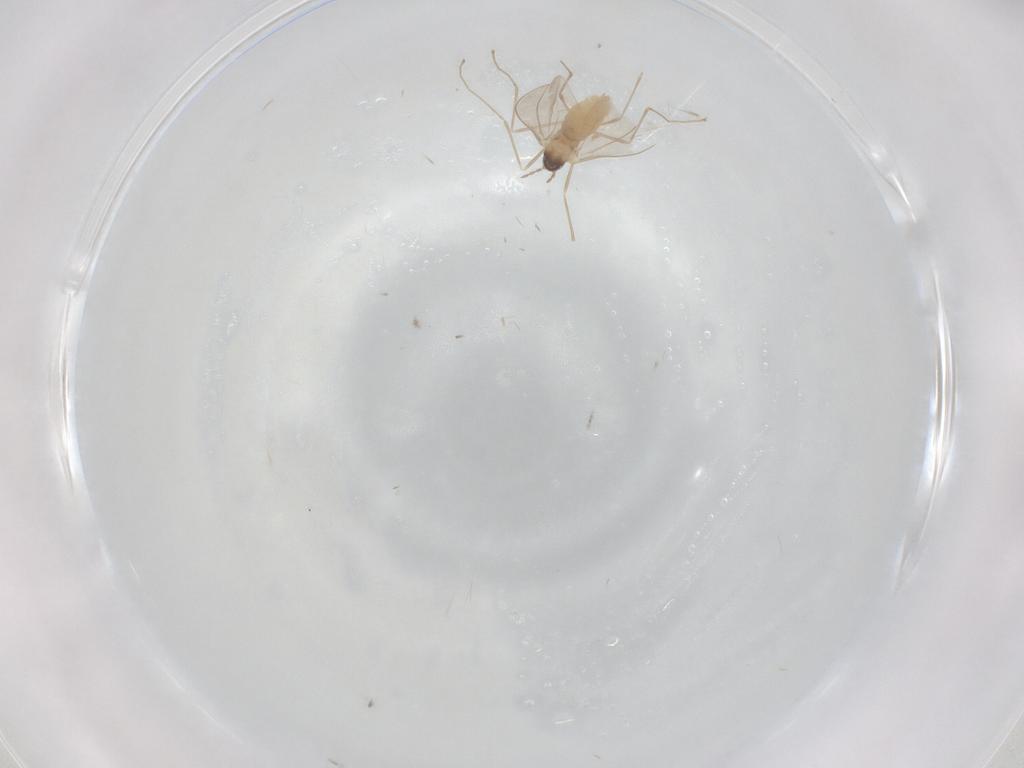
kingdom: Animalia
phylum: Arthropoda
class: Insecta
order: Diptera
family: Cecidomyiidae
